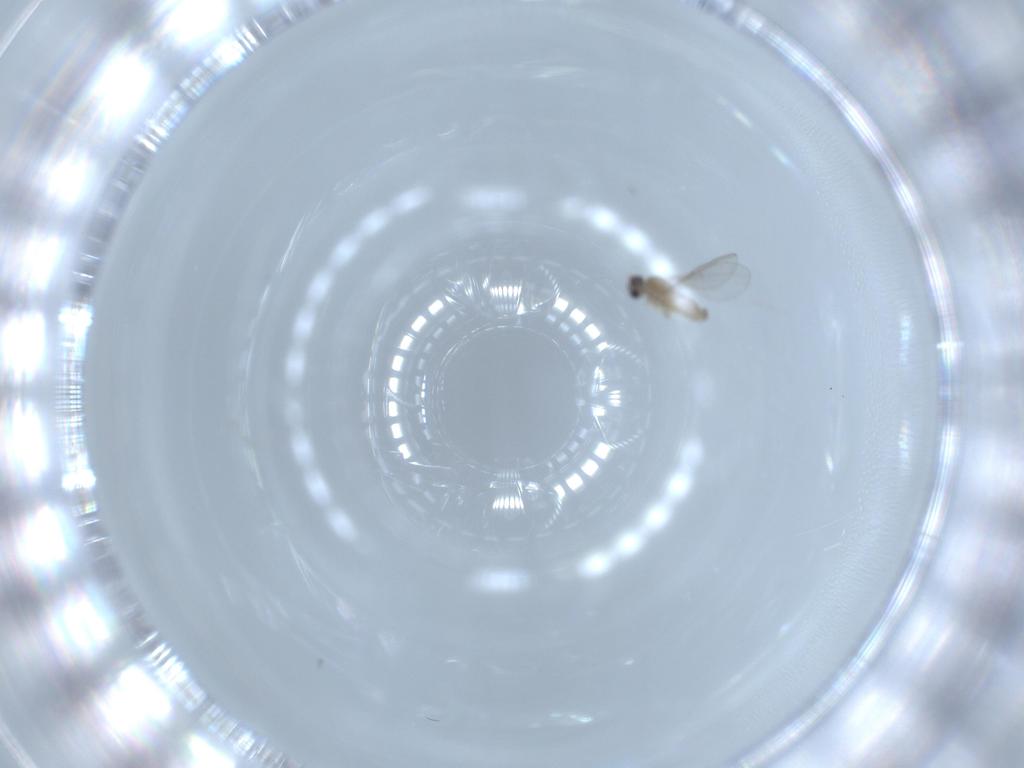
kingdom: Animalia
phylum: Arthropoda
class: Insecta
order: Diptera
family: Cecidomyiidae
